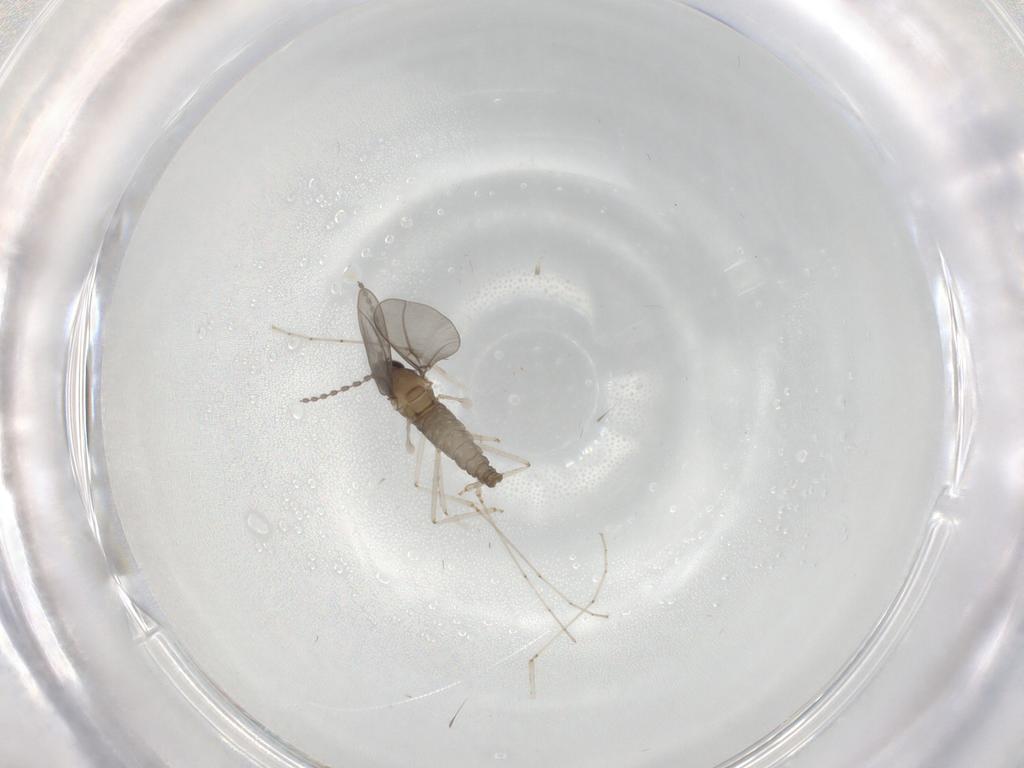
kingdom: Animalia
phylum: Arthropoda
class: Insecta
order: Diptera
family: Cecidomyiidae
